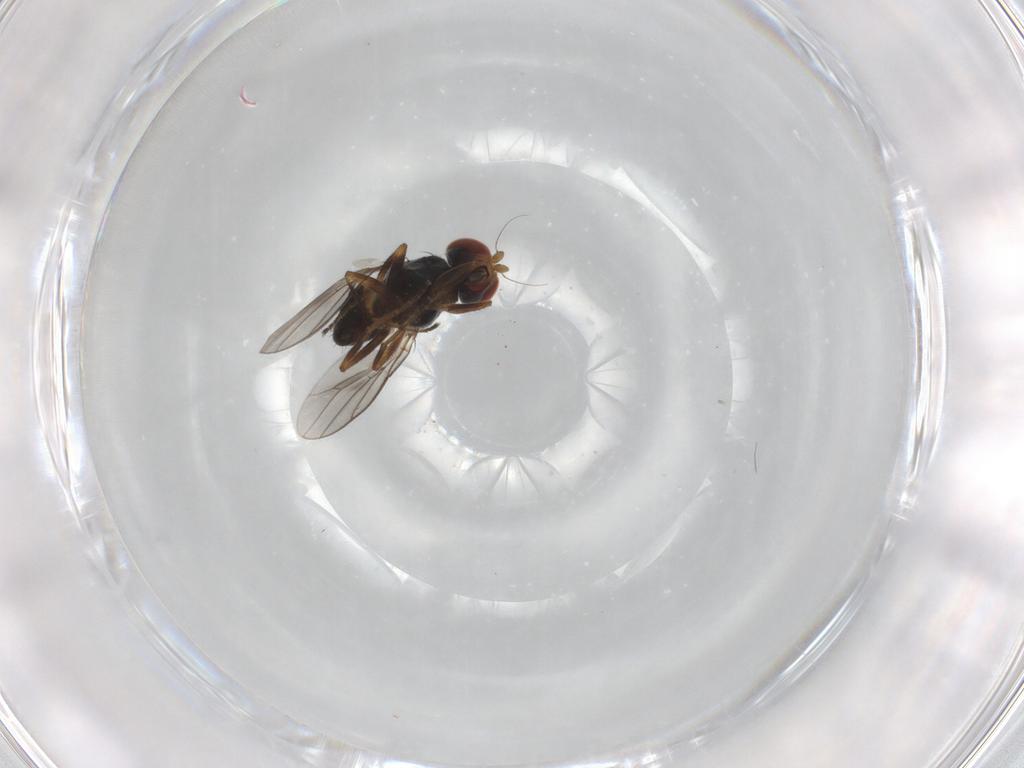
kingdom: Animalia
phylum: Arthropoda
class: Insecta
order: Diptera
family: Chloropidae
